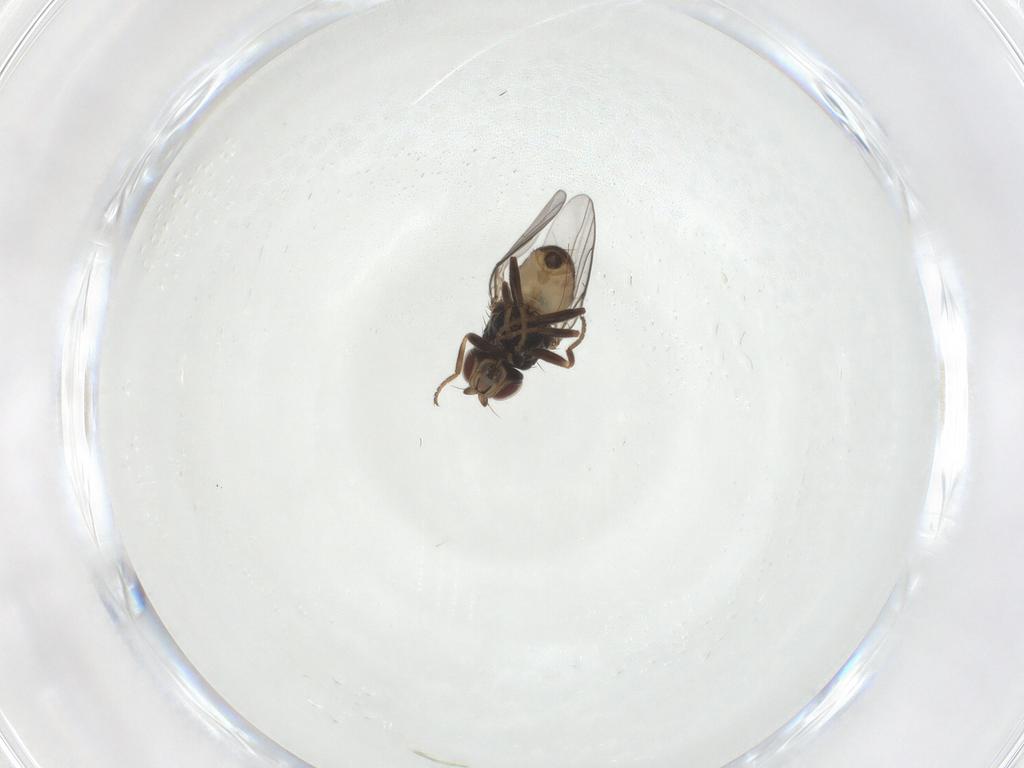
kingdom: Animalia
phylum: Arthropoda
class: Insecta
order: Diptera
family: Chloropidae
